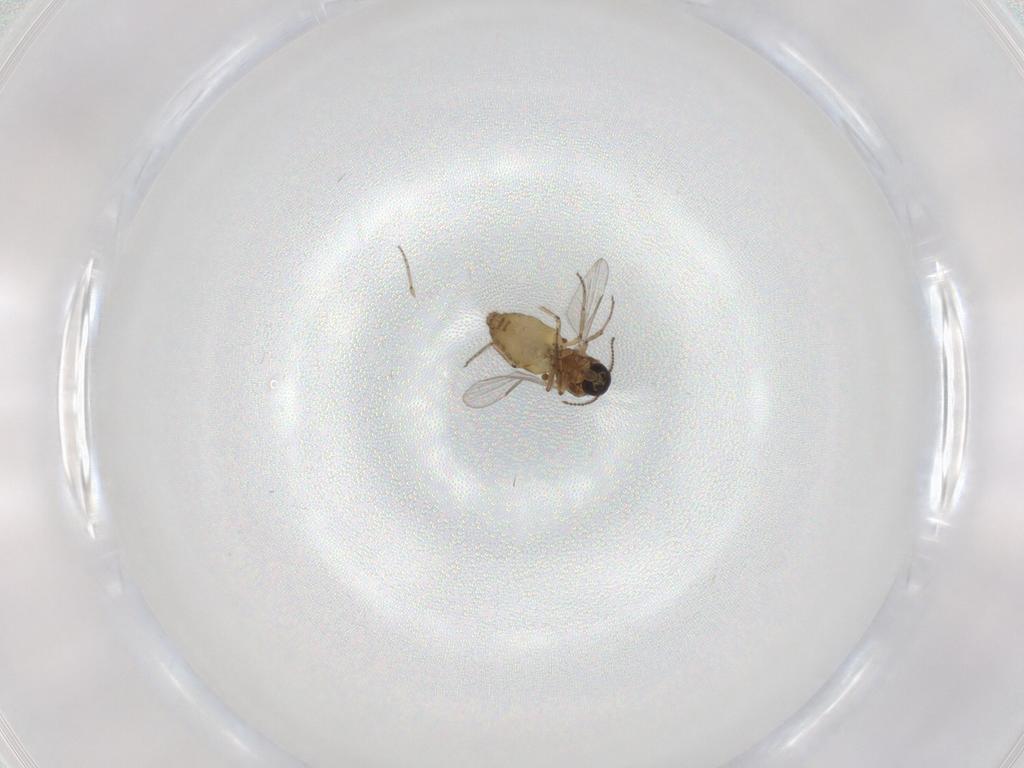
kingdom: Animalia
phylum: Arthropoda
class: Insecta
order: Diptera
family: Ceratopogonidae
